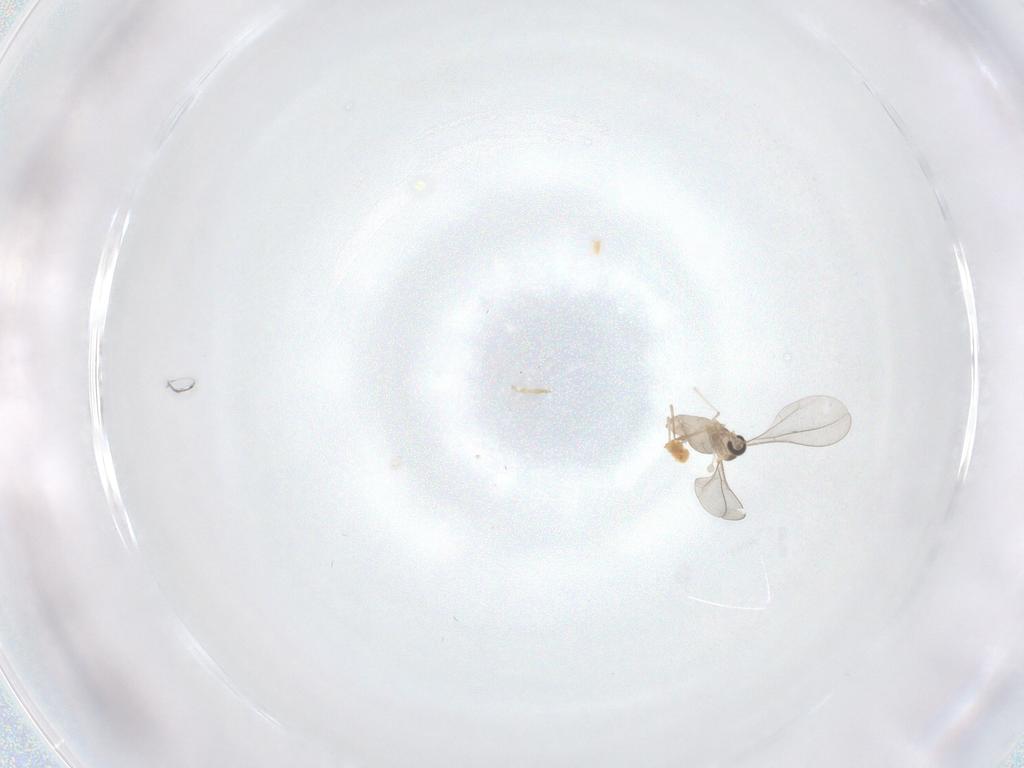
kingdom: Animalia
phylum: Arthropoda
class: Insecta
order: Diptera
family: Cecidomyiidae
